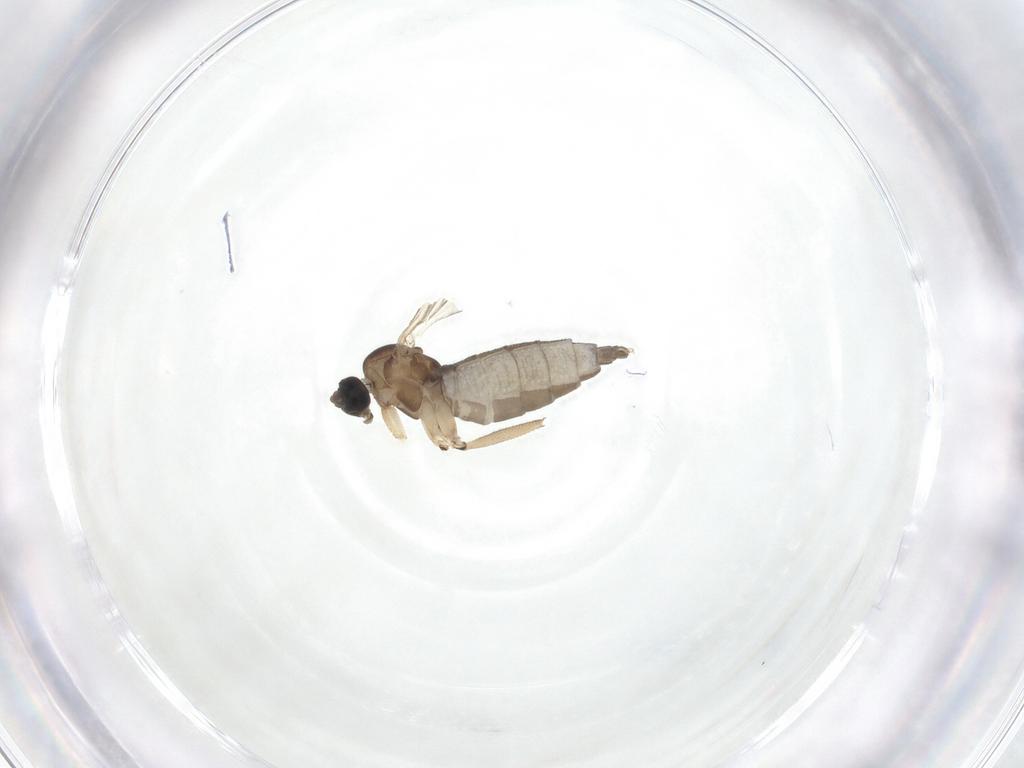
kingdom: Animalia
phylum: Arthropoda
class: Insecta
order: Diptera
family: Sciaridae
